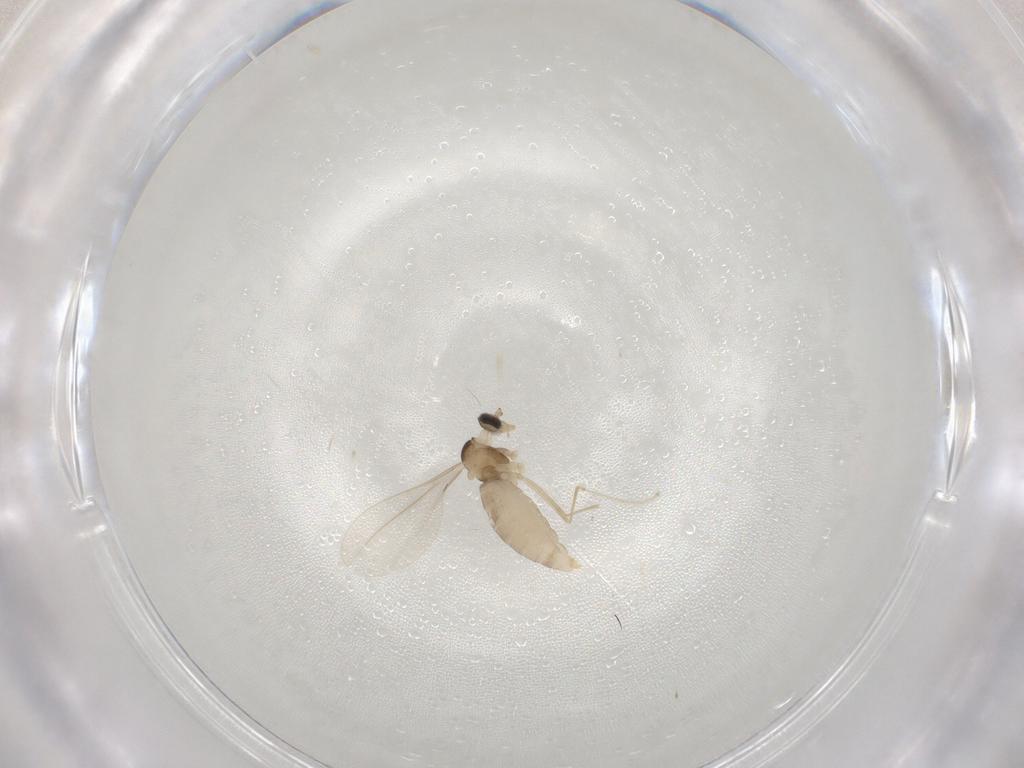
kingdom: Animalia
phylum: Arthropoda
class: Insecta
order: Diptera
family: Cecidomyiidae
